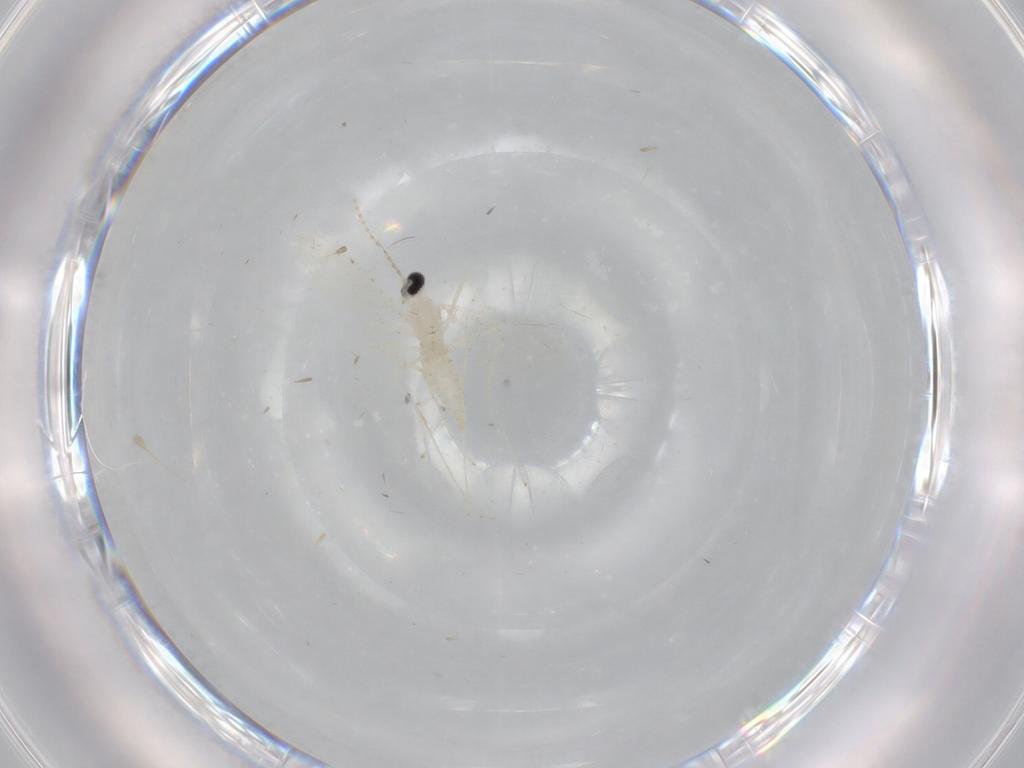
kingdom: Animalia
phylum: Arthropoda
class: Insecta
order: Diptera
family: Cecidomyiidae
